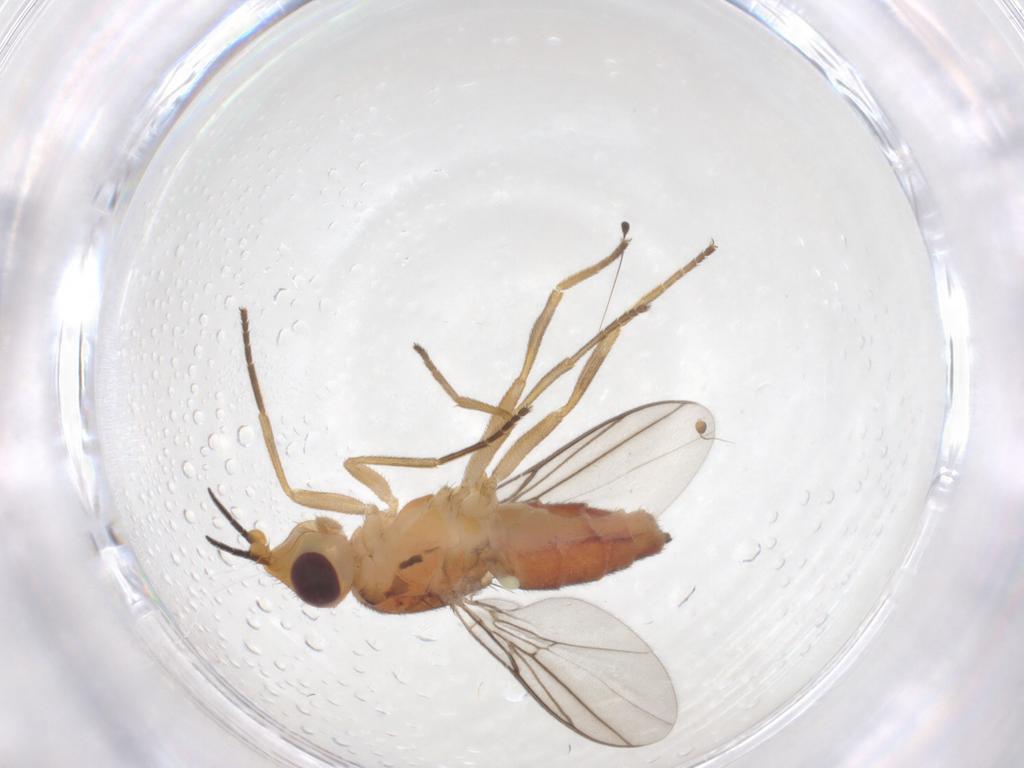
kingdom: Animalia
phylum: Arthropoda
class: Insecta
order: Diptera
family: Chloropidae
